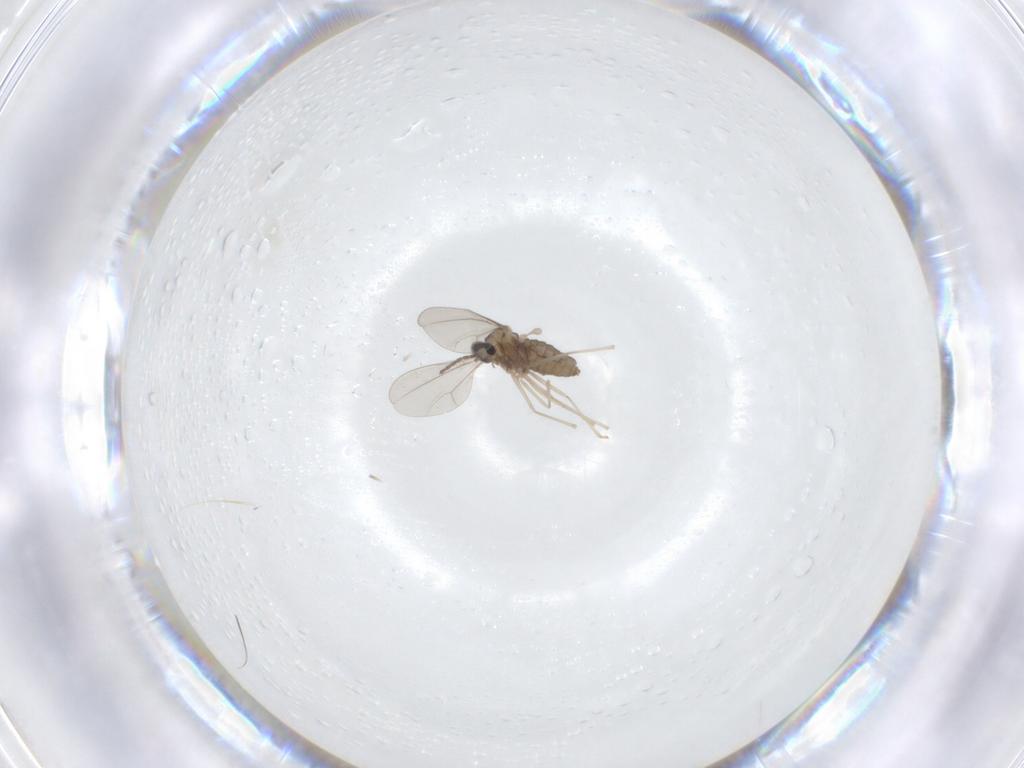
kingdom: Animalia
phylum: Arthropoda
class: Insecta
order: Diptera
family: Cecidomyiidae
